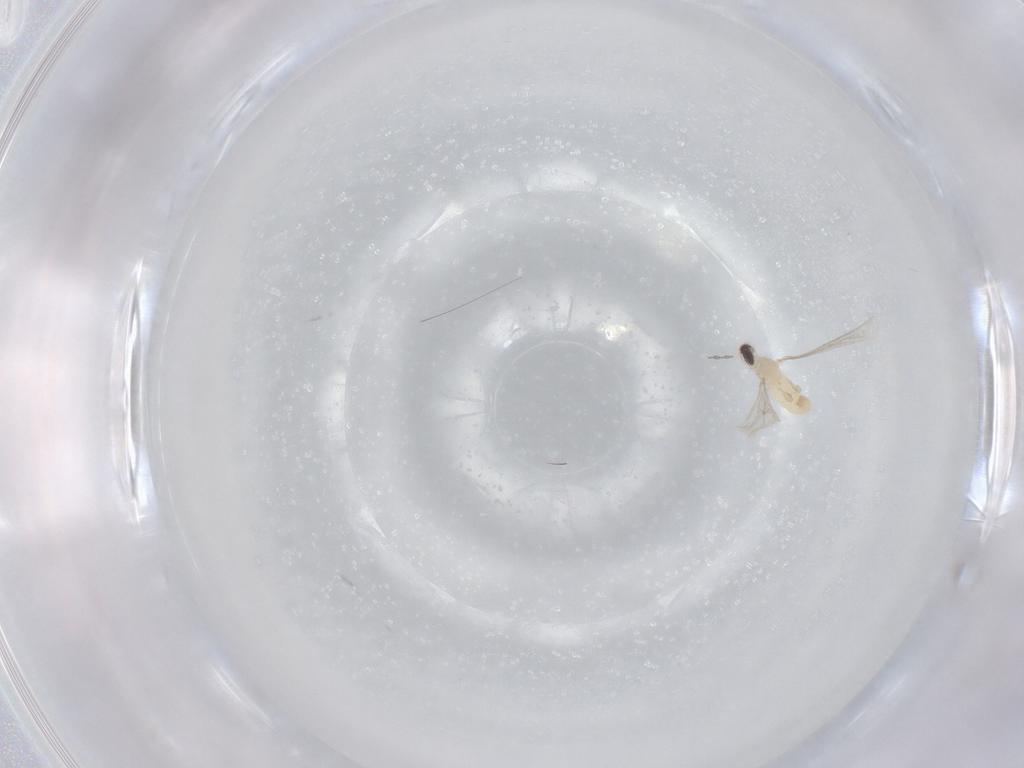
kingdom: Animalia
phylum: Arthropoda
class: Insecta
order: Diptera
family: Cecidomyiidae
